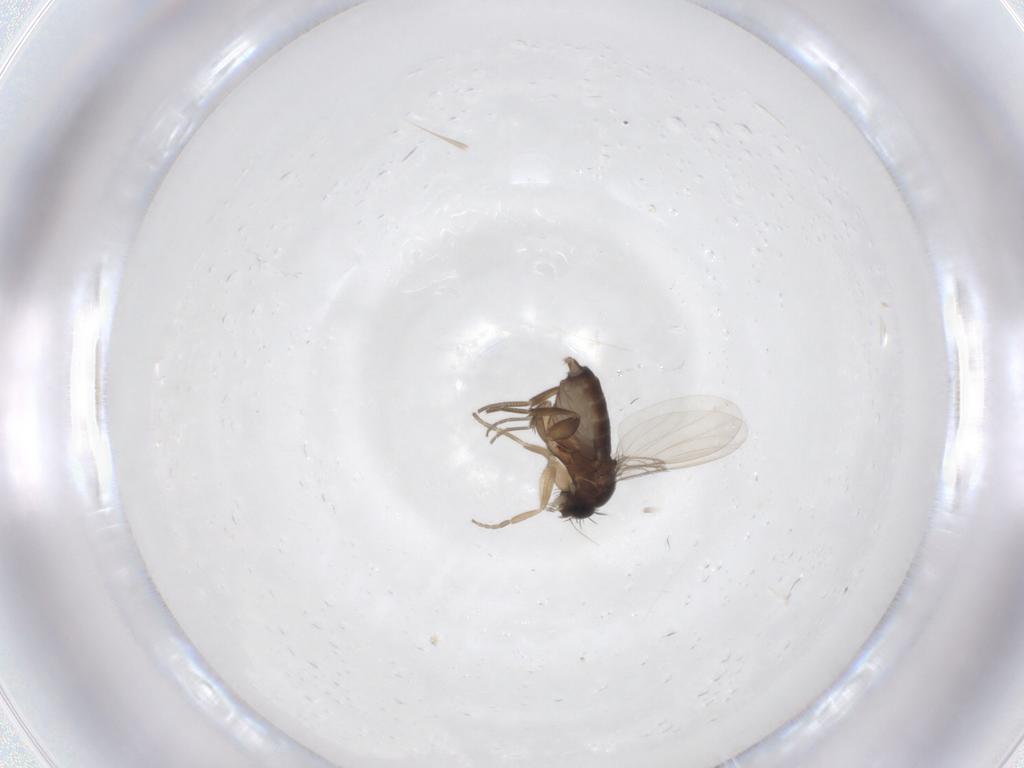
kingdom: Animalia
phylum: Arthropoda
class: Insecta
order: Diptera
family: Phoridae
